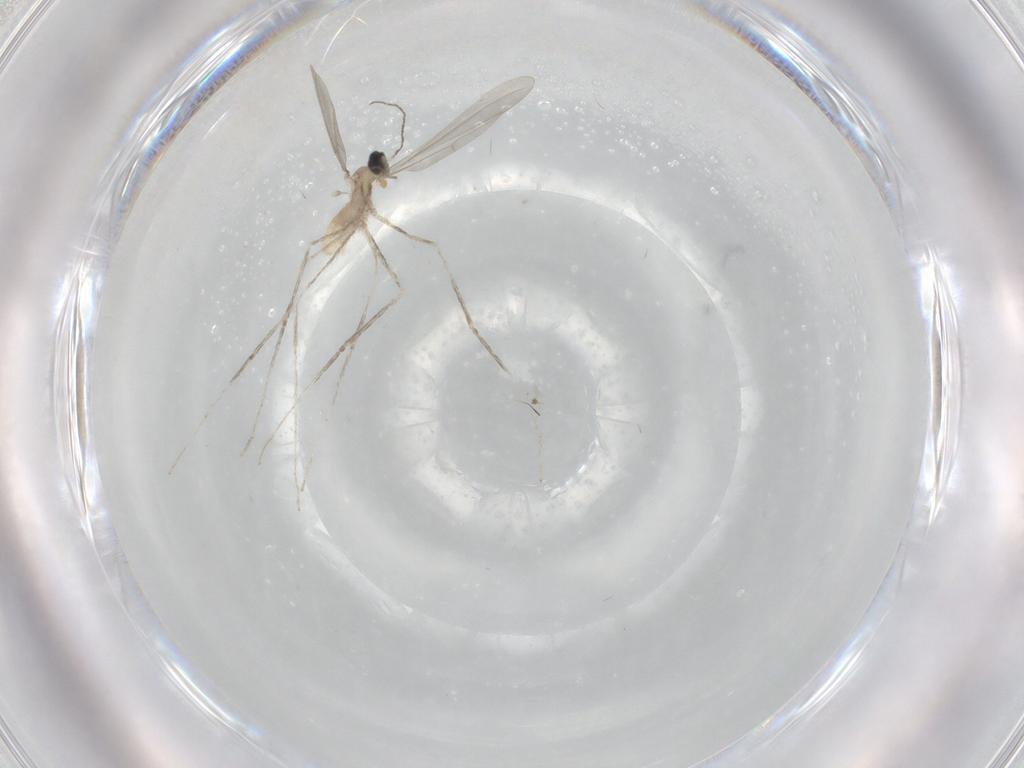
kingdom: Animalia
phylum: Arthropoda
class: Insecta
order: Diptera
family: Cecidomyiidae
